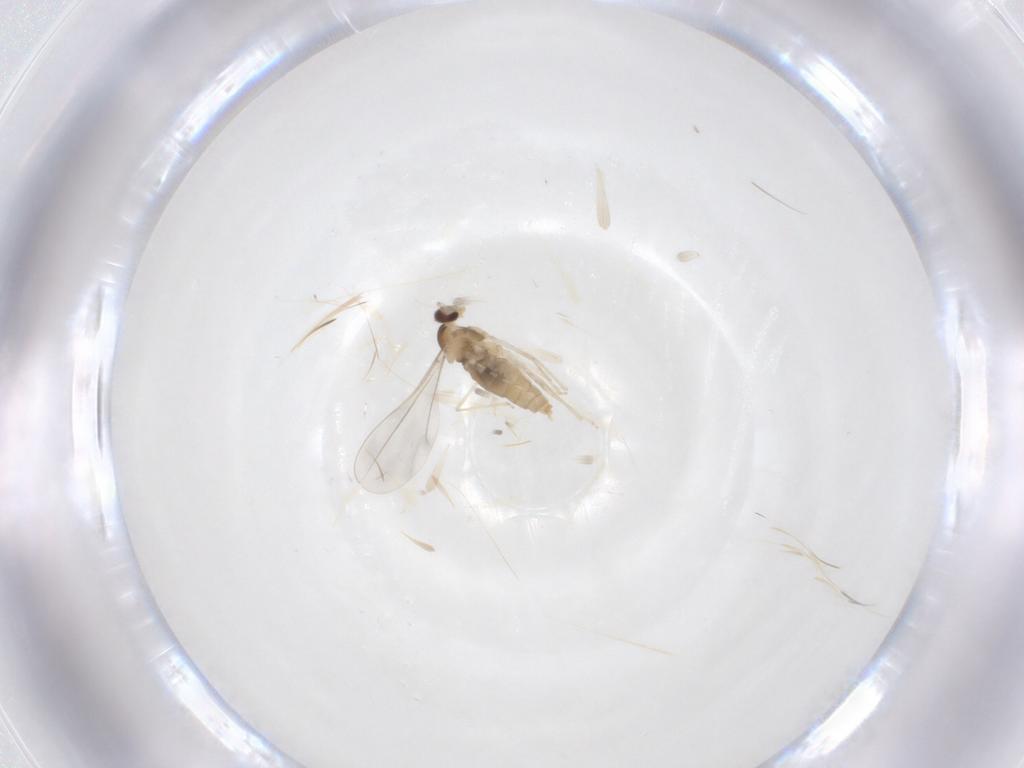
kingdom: Animalia
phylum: Arthropoda
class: Insecta
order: Diptera
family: Cecidomyiidae
